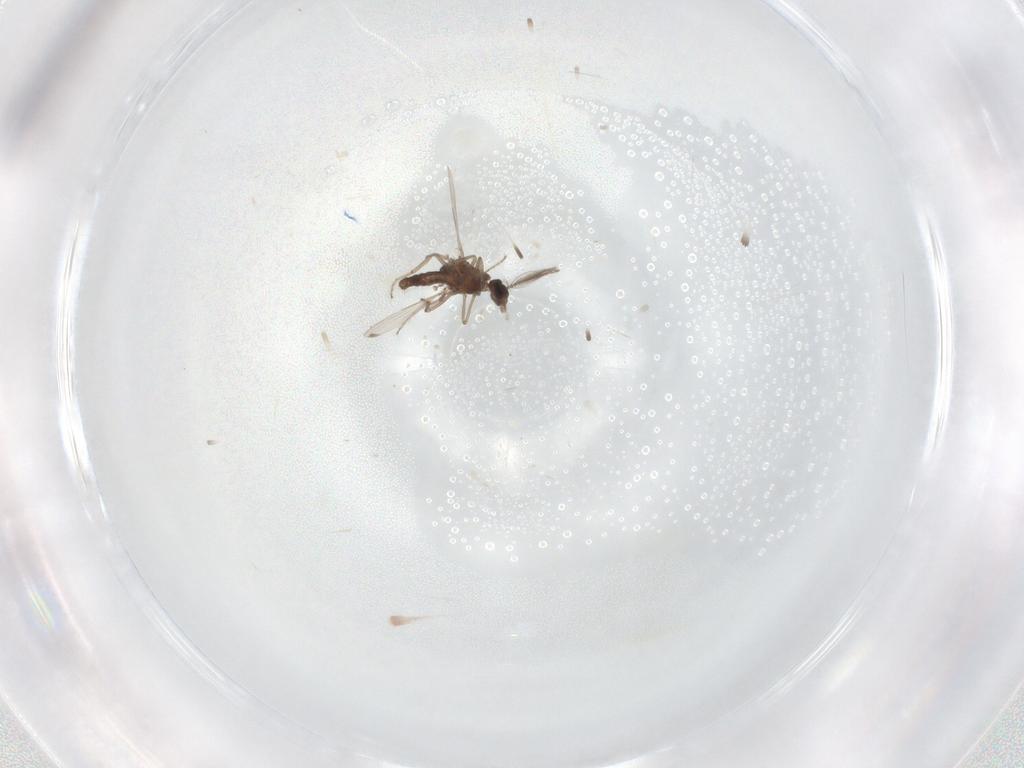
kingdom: Animalia
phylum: Arthropoda
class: Insecta
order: Diptera
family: Ceratopogonidae
